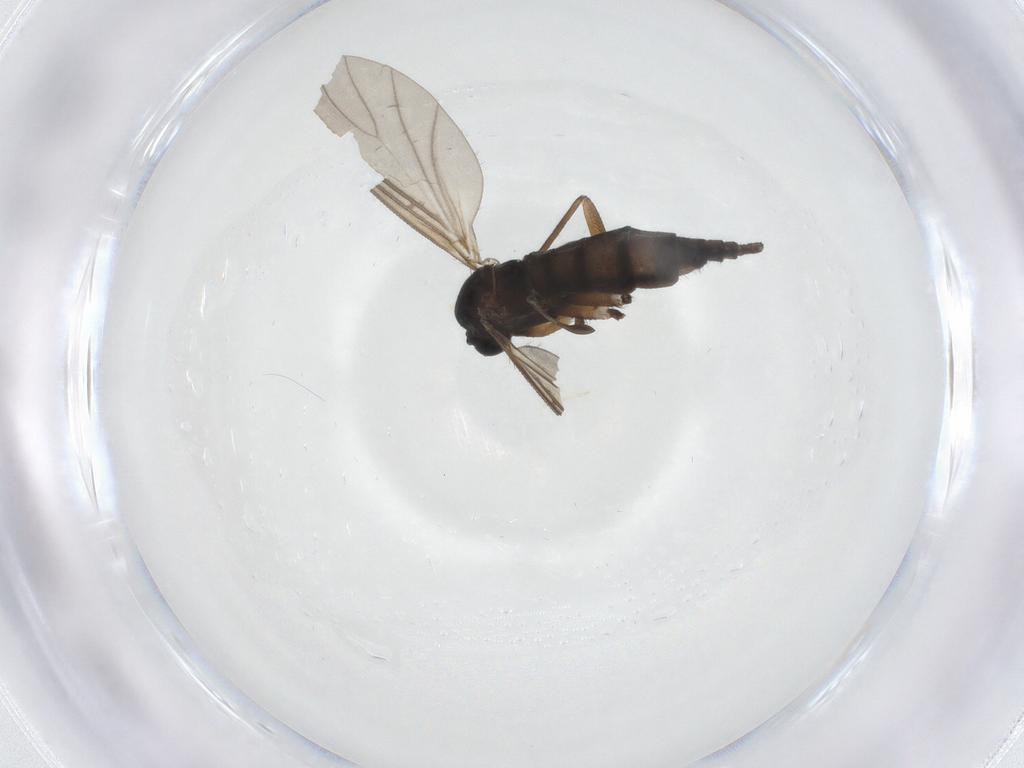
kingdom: Animalia
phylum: Arthropoda
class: Insecta
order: Diptera
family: Sciaridae
